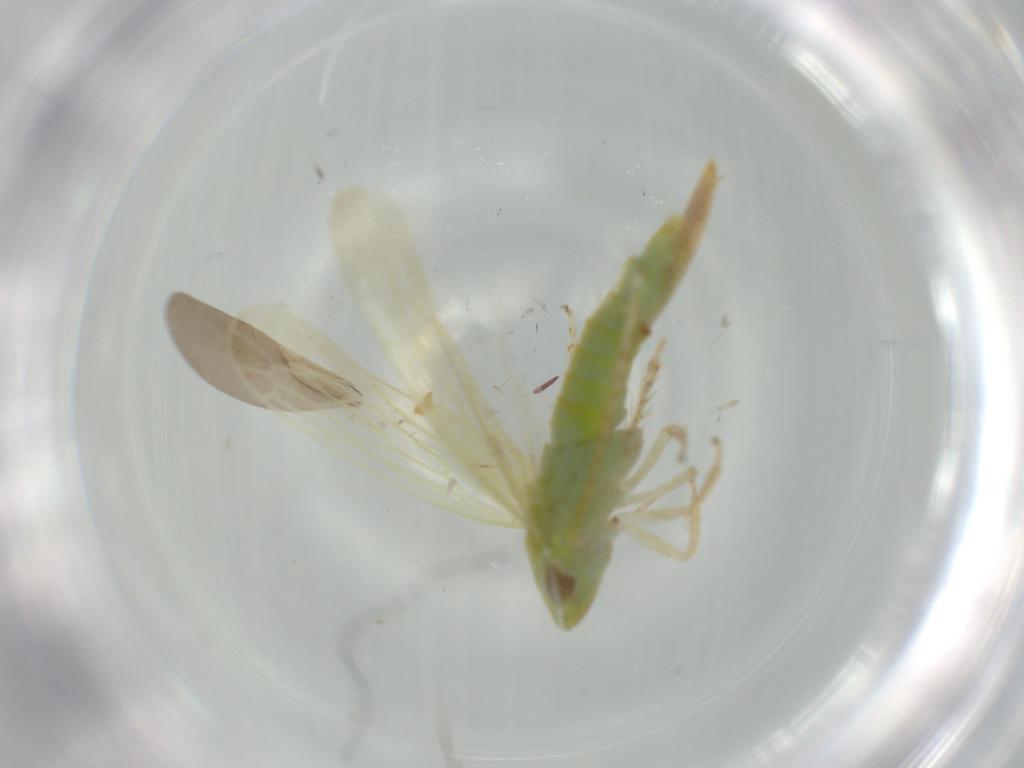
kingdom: Animalia
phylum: Arthropoda
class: Insecta
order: Hemiptera
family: Cicadellidae
